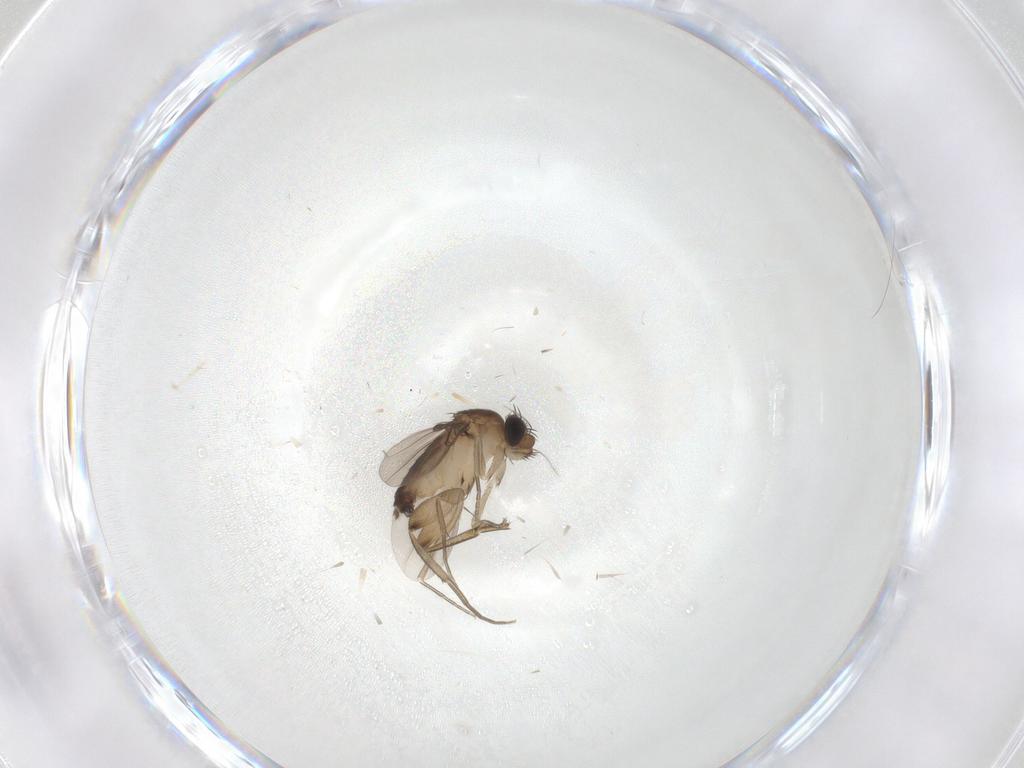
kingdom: Animalia
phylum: Arthropoda
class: Insecta
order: Diptera
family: Phoridae
